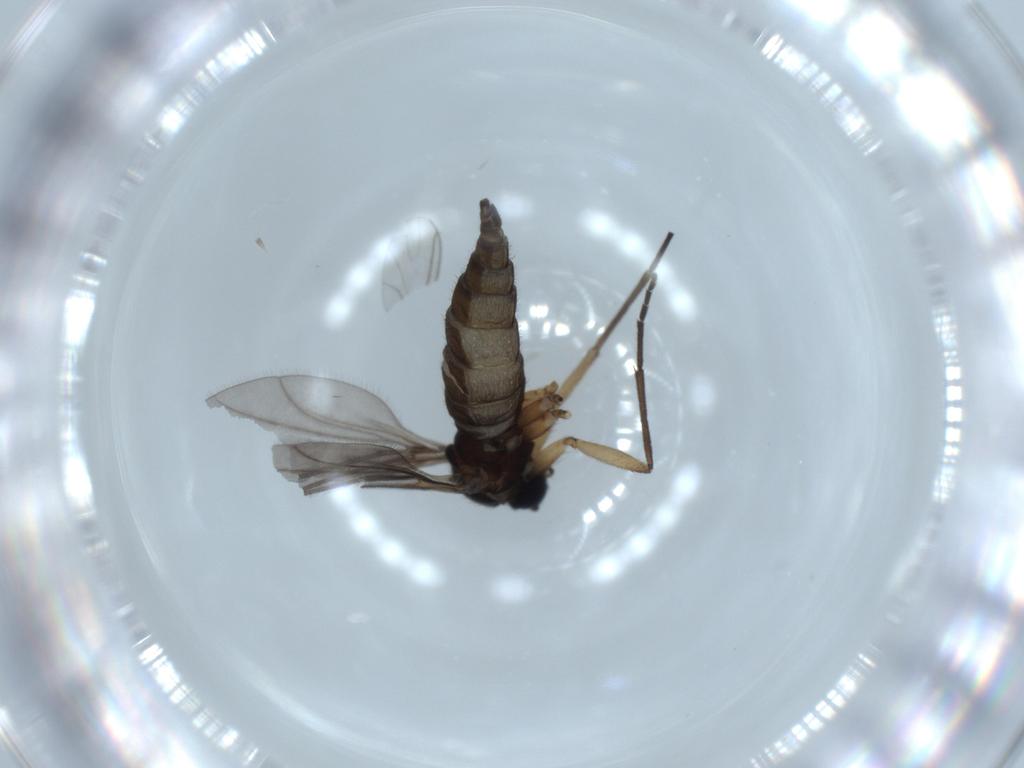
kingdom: Animalia
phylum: Arthropoda
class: Insecta
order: Diptera
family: Sciaridae
